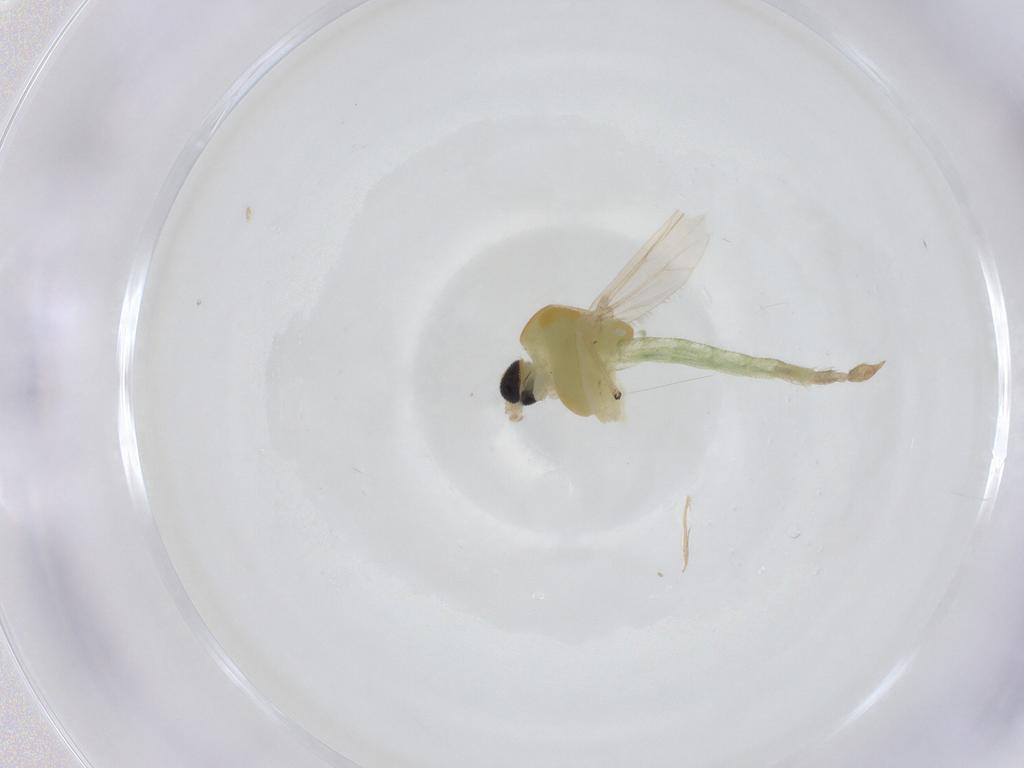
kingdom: Animalia
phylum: Arthropoda
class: Insecta
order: Diptera
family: Chironomidae
